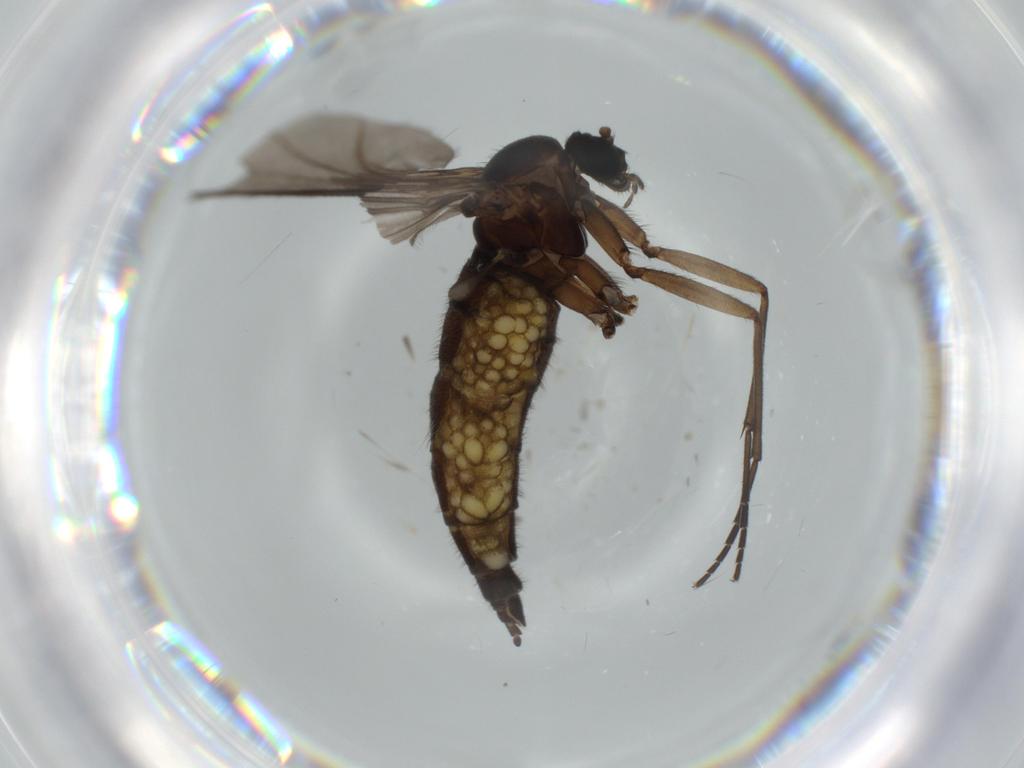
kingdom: Animalia
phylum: Arthropoda
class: Insecta
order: Diptera
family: Sciaridae
